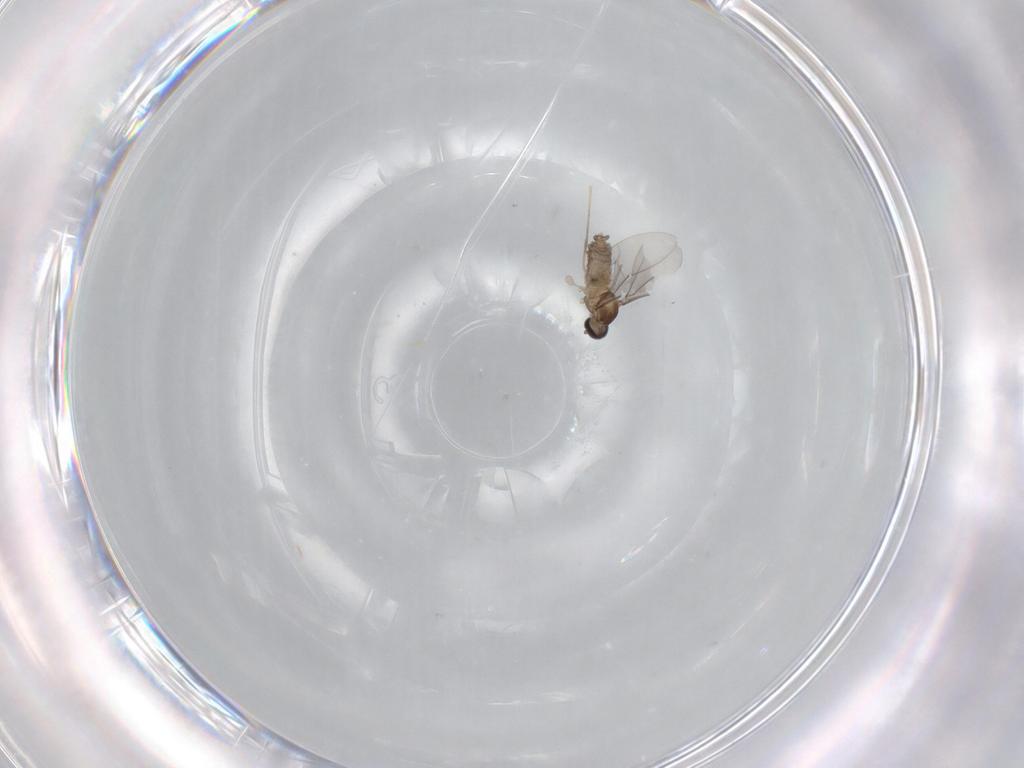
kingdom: Animalia
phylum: Arthropoda
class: Insecta
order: Diptera
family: Cecidomyiidae
